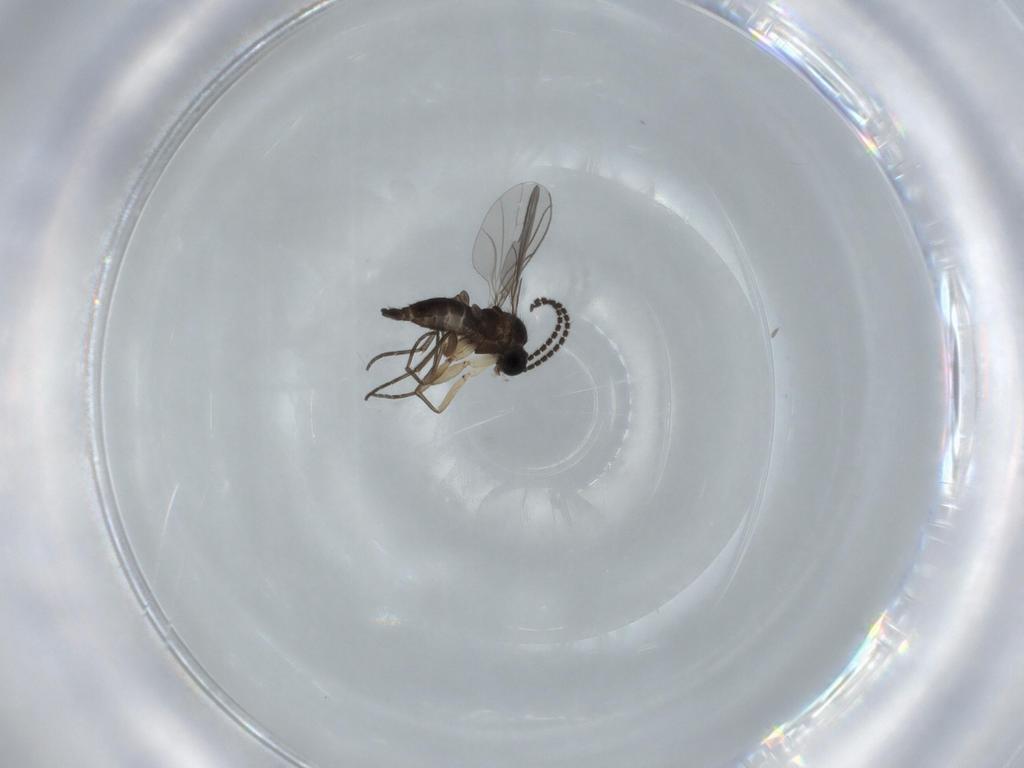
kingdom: Animalia
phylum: Arthropoda
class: Insecta
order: Diptera
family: Sciaridae
